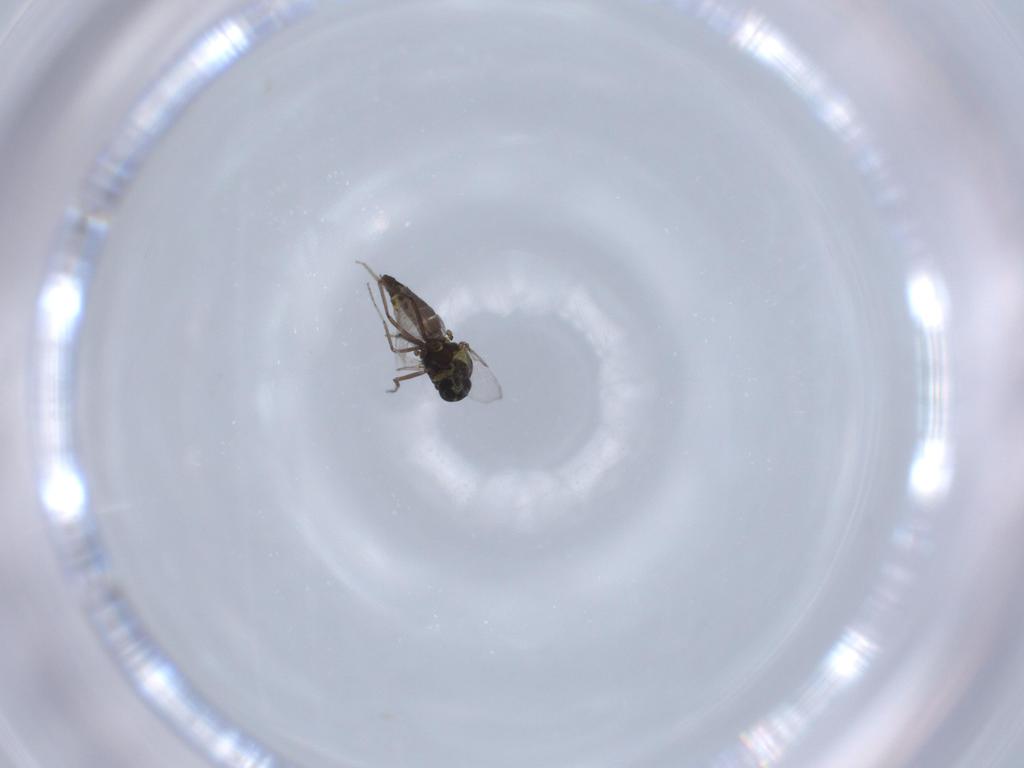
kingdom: Animalia
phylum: Arthropoda
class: Insecta
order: Diptera
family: Ceratopogonidae
